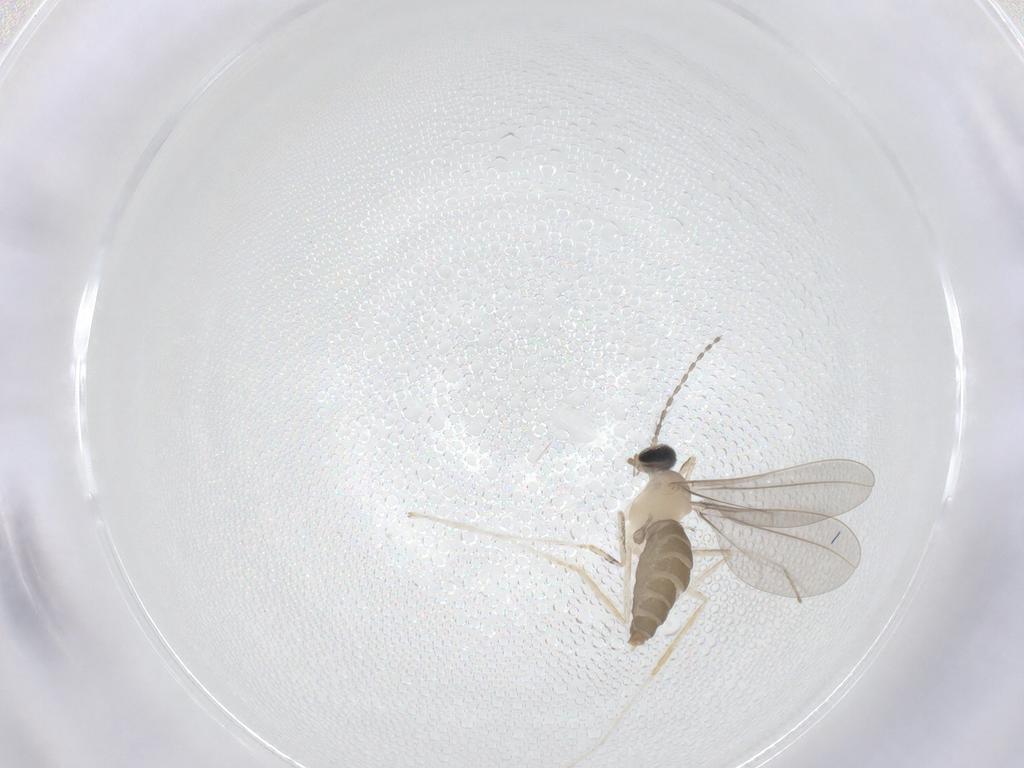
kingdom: Animalia
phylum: Arthropoda
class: Insecta
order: Diptera
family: Cecidomyiidae
